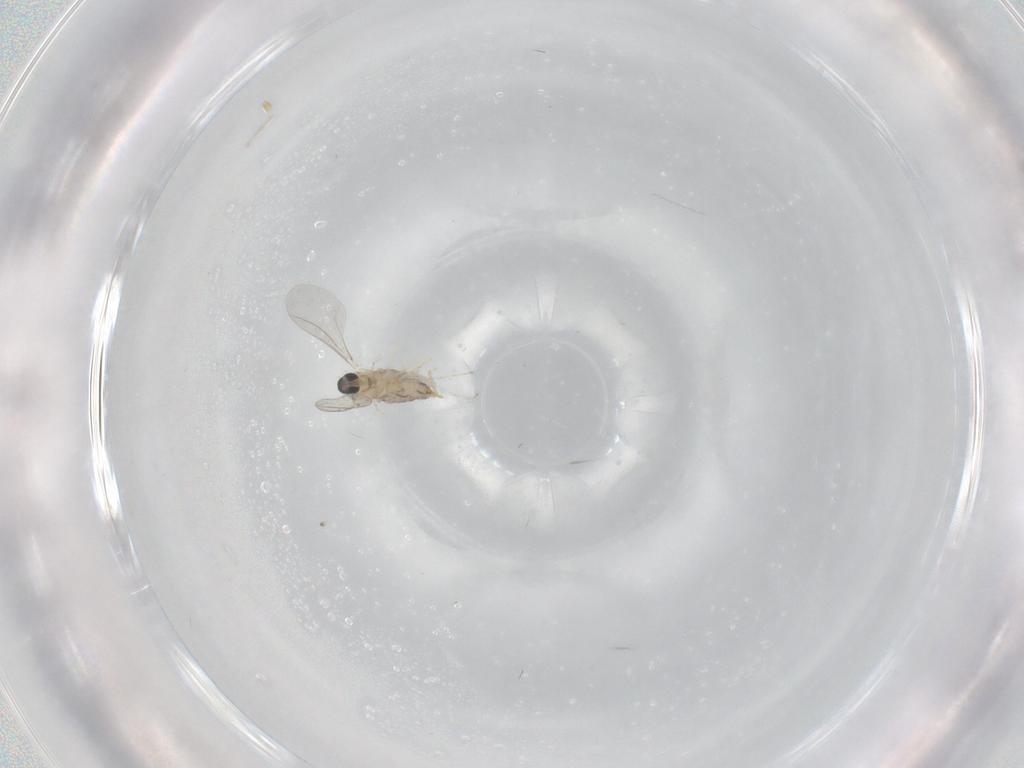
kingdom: Animalia
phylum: Arthropoda
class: Insecta
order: Diptera
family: Cecidomyiidae
